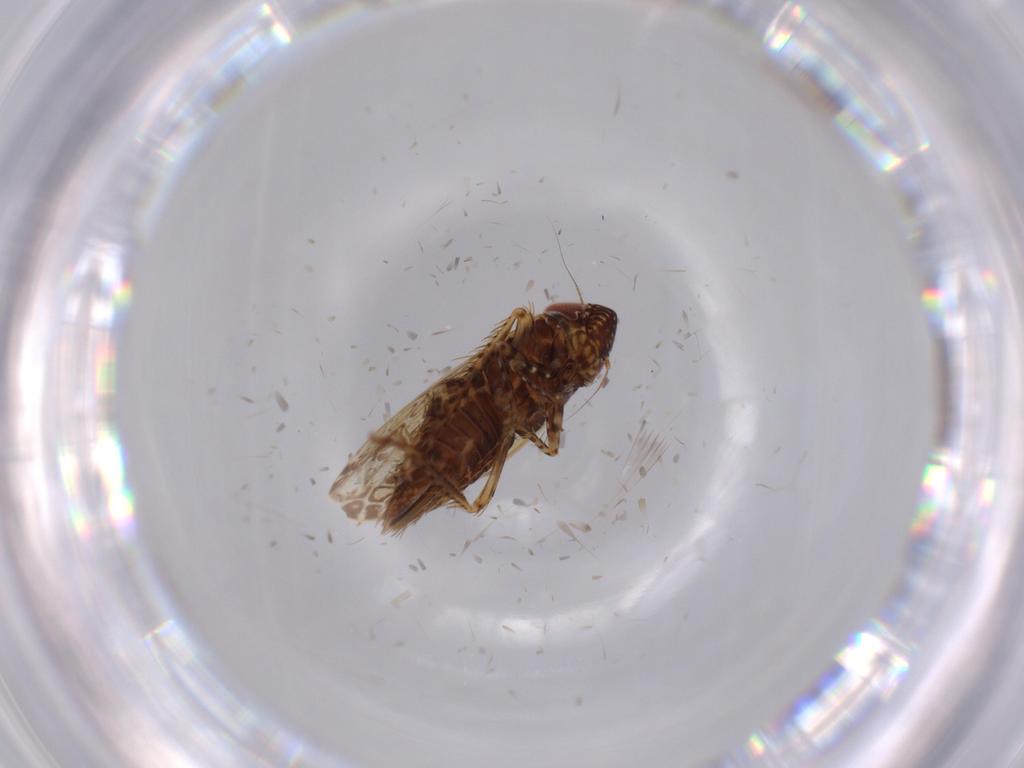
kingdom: Animalia
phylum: Arthropoda
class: Insecta
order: Hemiptera
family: Cicadellidae
